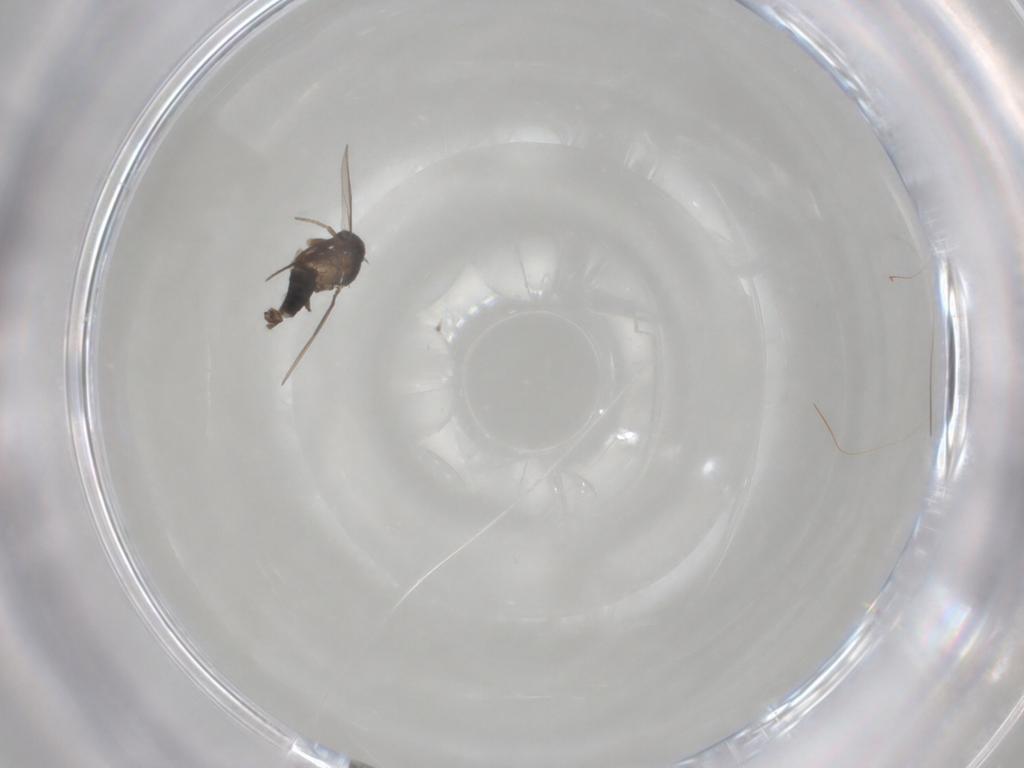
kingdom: Animalia
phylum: Arthropoda
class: Insecta
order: Diptera
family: Phoridae
